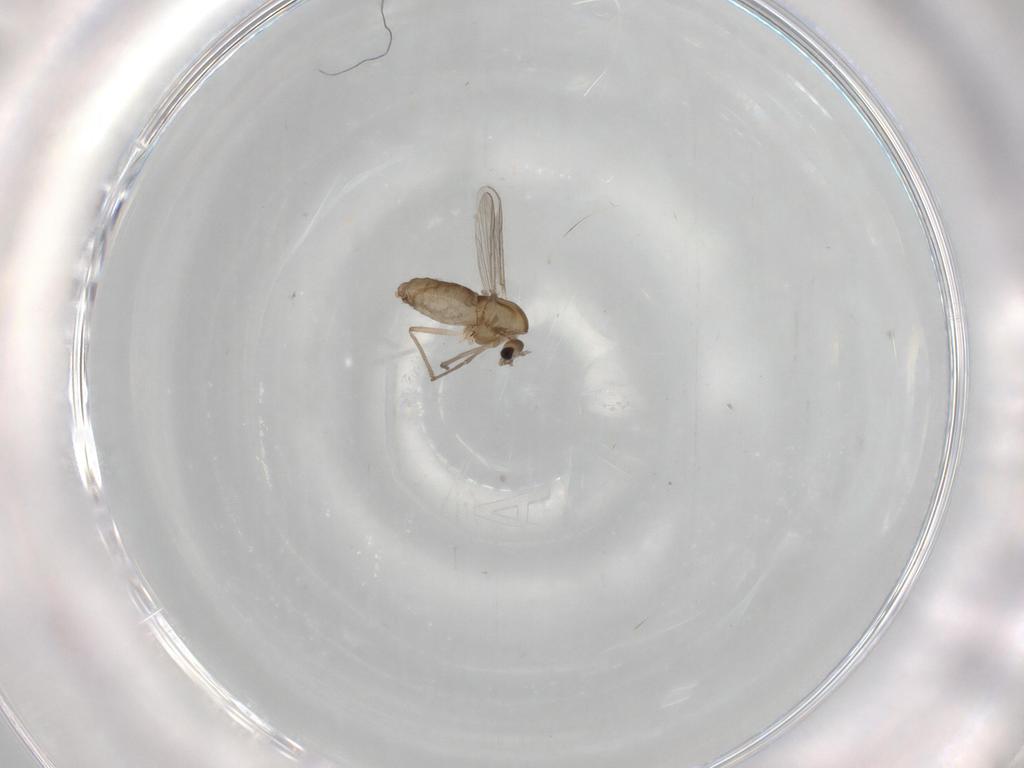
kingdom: Animalia
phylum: Arthropoda
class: Insecta
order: Diptera
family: Chironomidae
